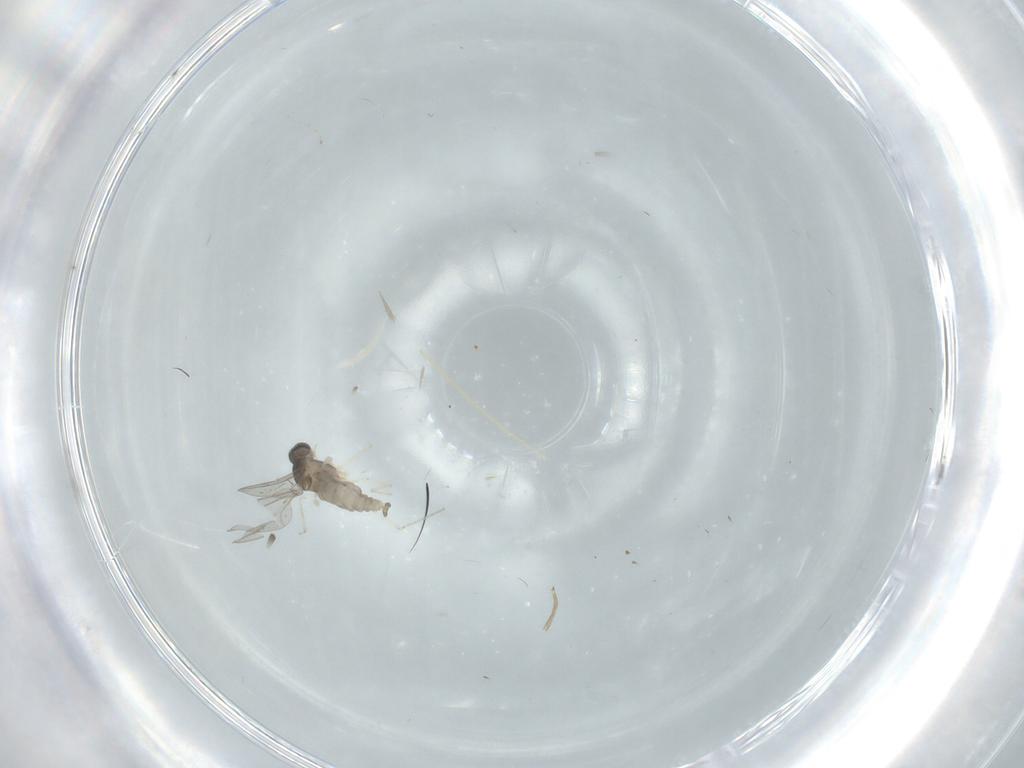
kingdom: Animalia
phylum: Arthropoda
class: Insecta
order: Diptera
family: Cecidomyiidae
